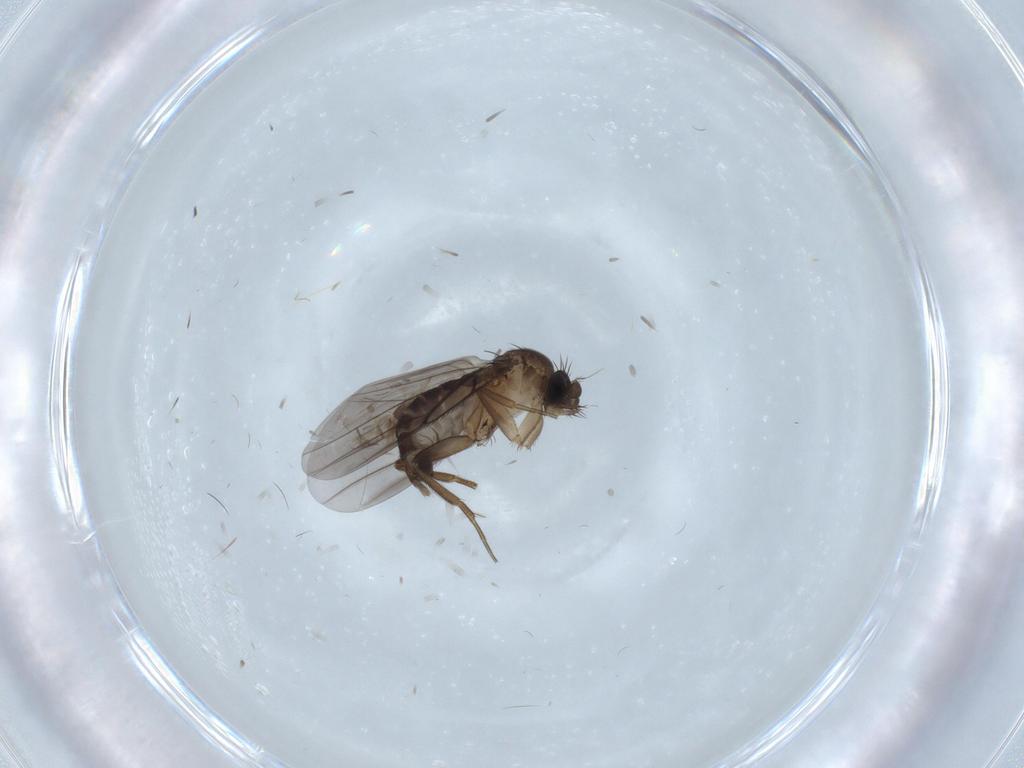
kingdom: Animalia
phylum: Arthropoda
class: Insecta
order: Diptera
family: Phoridae
